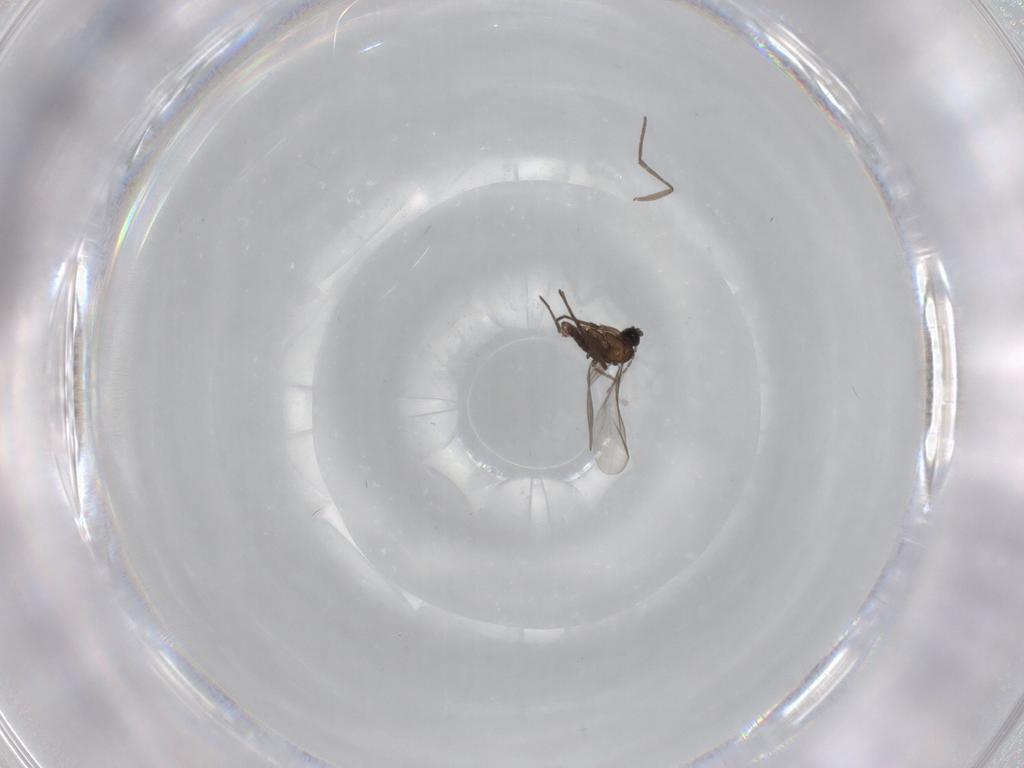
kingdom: Animalia
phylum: Arthropoda
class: Insecta
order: Diptera
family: Sciaridae
